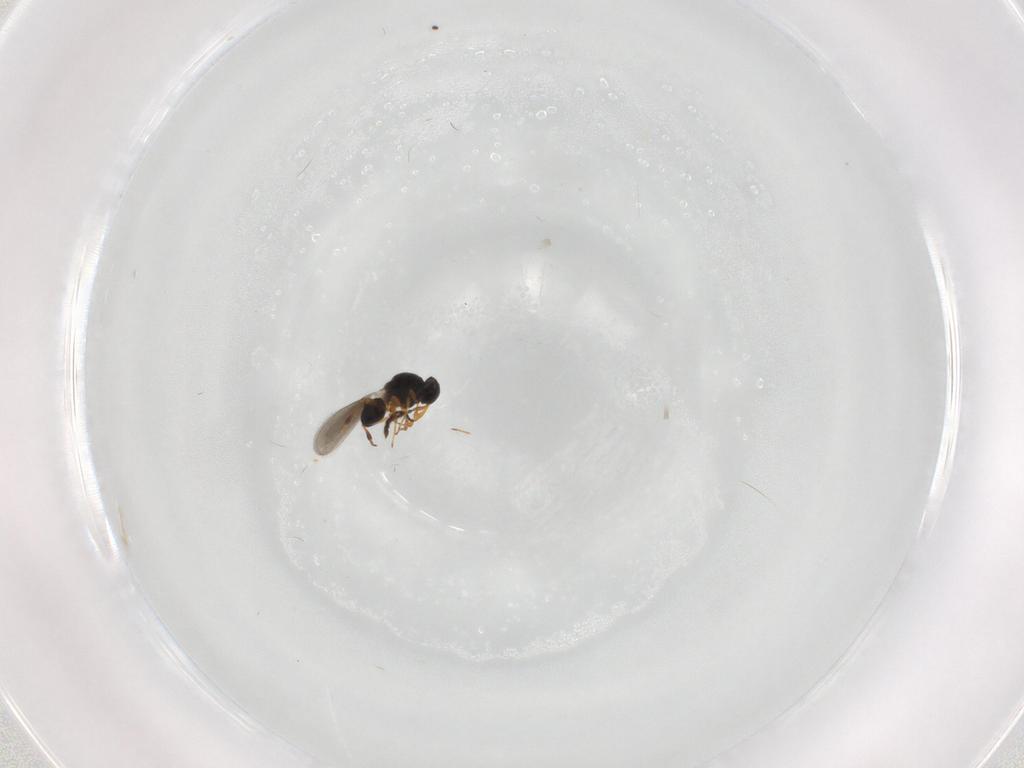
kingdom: Animalia
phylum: Arthropoda
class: Insecta
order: Hymenoptera
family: Platygastridae
